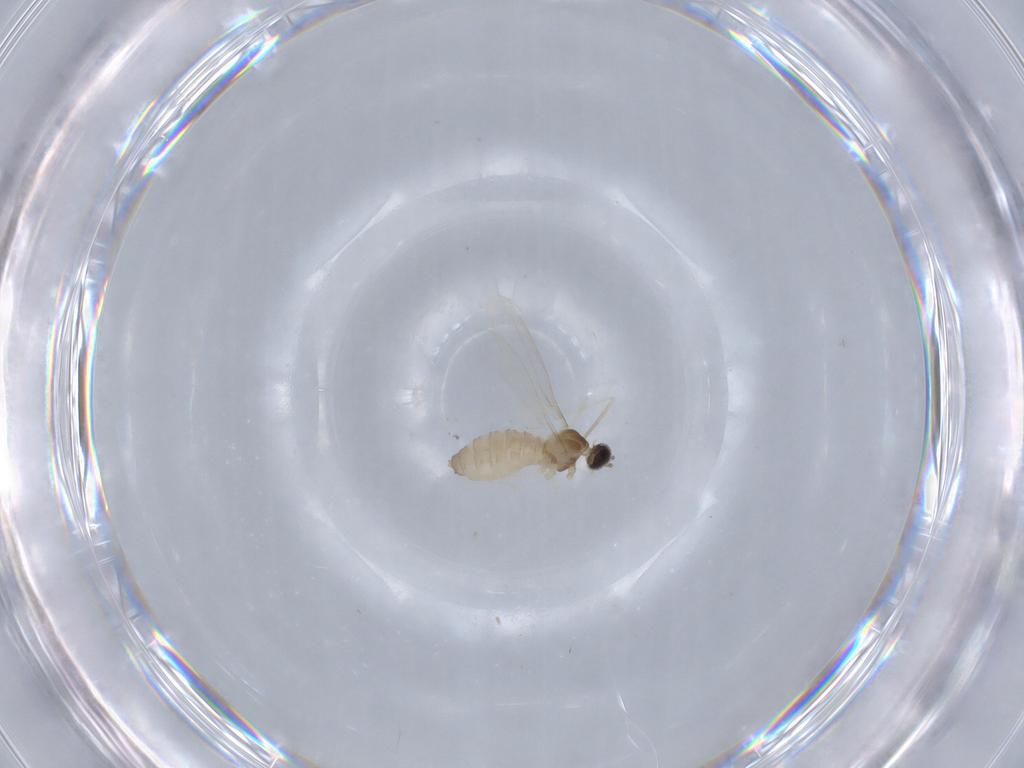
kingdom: Animalia
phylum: Arthropoda
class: Insecta
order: Diptera
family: Cecidomyiidae
